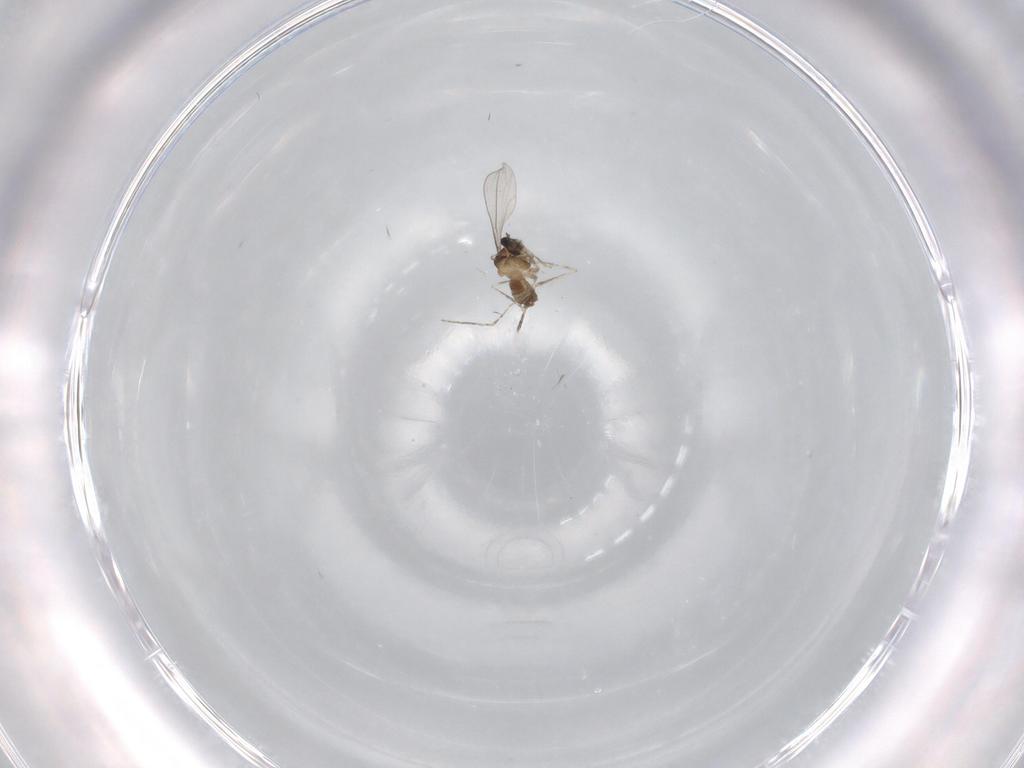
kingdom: Animalia
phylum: Arthropoda
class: Insecta
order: Diptera
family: Cecidomyiidae
